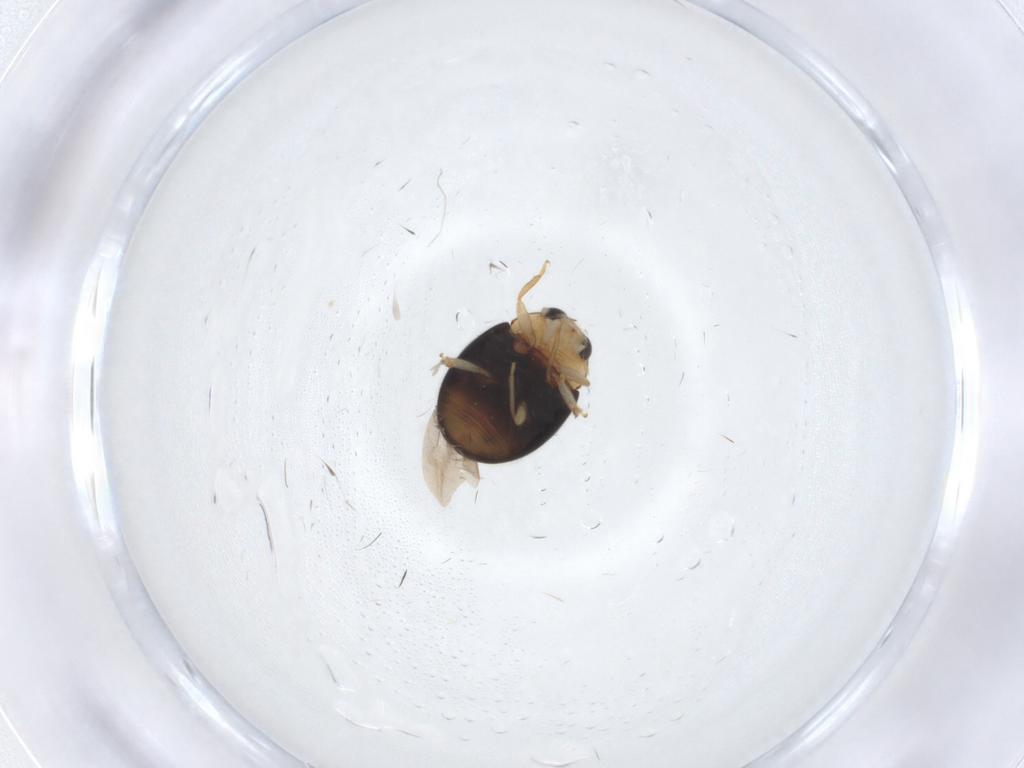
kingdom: Animalia
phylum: Arthropoda
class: Insecta
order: Coleoptera
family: Coccinellidae
